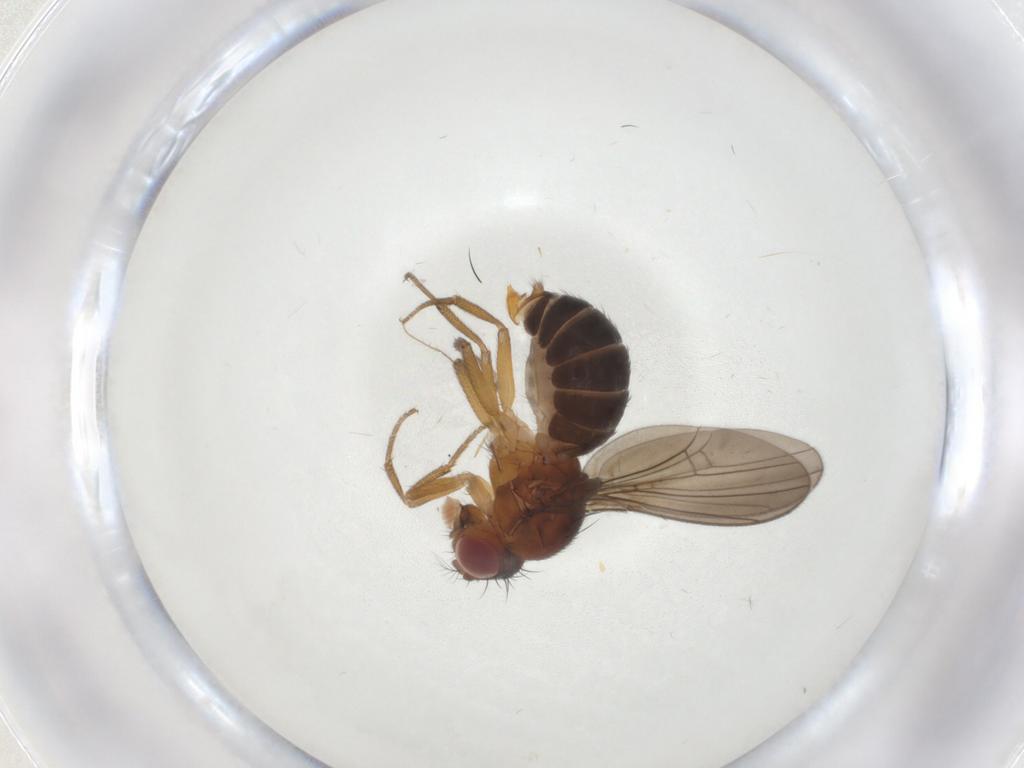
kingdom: Animalia
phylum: Arthropoda
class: Insecta
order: Diptera
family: Drosophilidae
